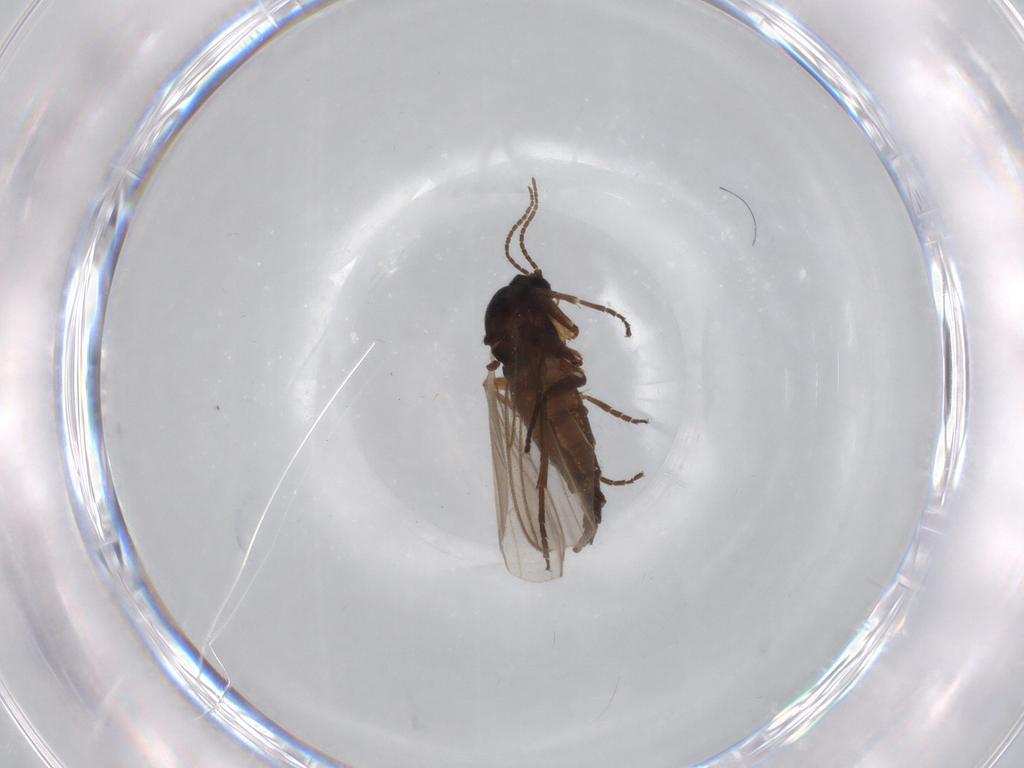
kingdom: Animalia
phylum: Arthropoda
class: Insecta
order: Diptera
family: Sciaridae
